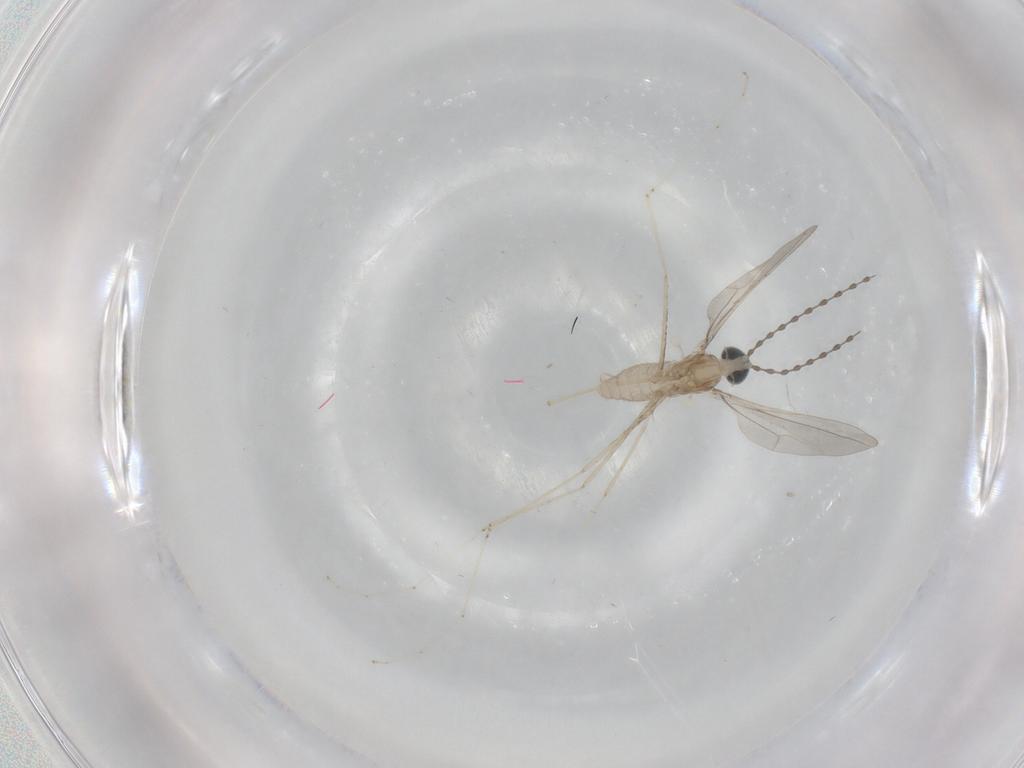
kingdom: Animalia
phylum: Arthropoda
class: Insecta
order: Diptera
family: Cecidomyiidae
